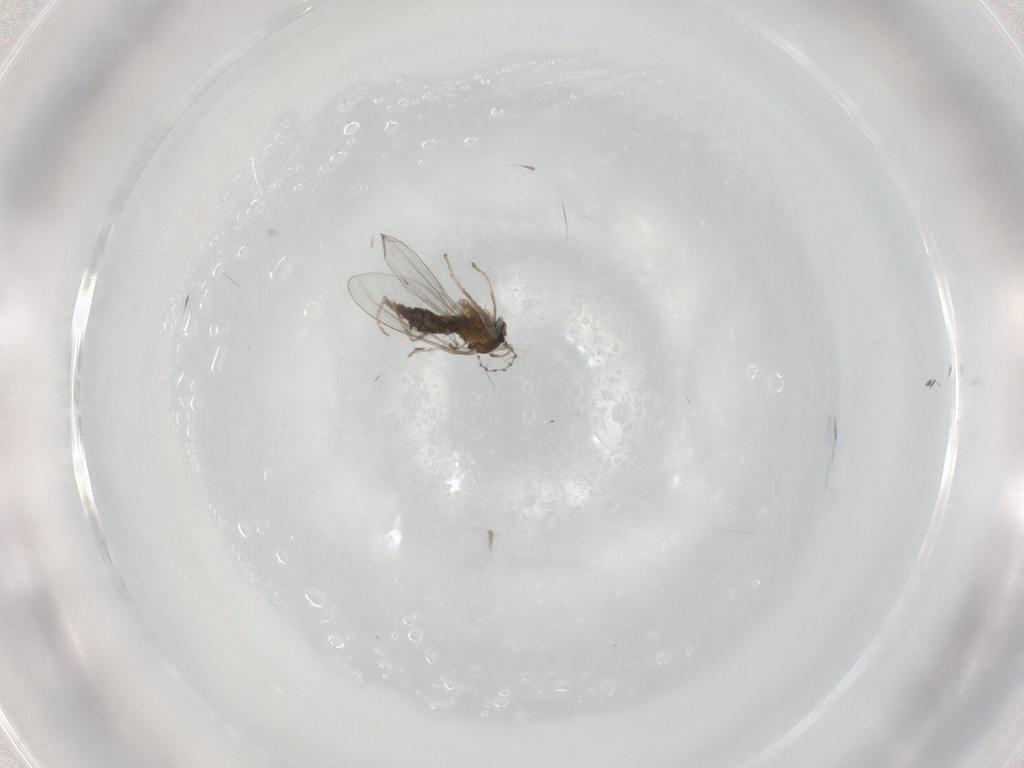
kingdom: Animalia
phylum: Arthropoda
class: Insecta
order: Diptera
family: Cecidomyiidae
